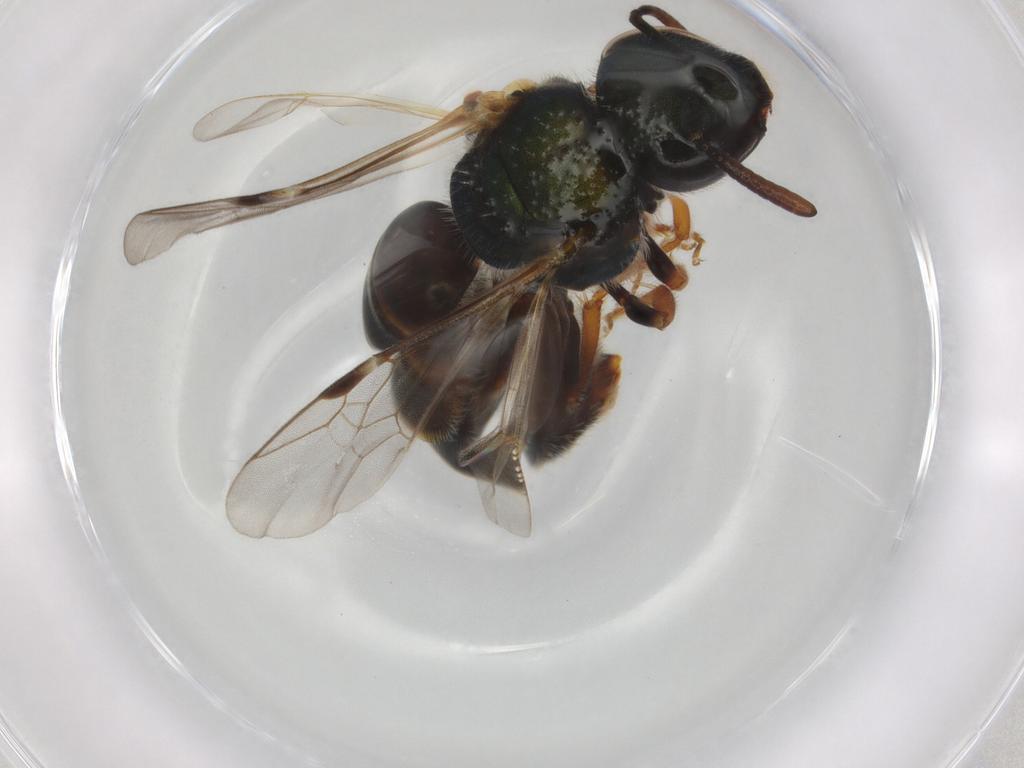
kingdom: Animalia
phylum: Arthropoda
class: Insecta
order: Hymenoptera
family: Halictidae
